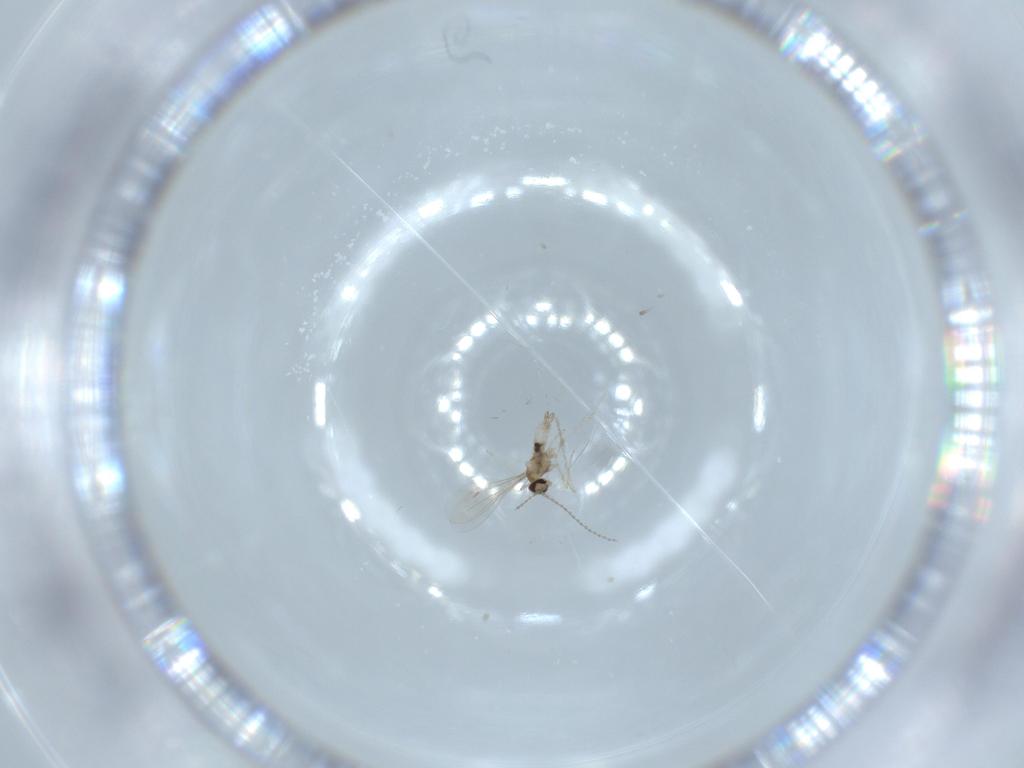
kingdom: Animalia
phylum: Arthropoda
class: Insecta
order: Diptera
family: Cecidomyiidae
